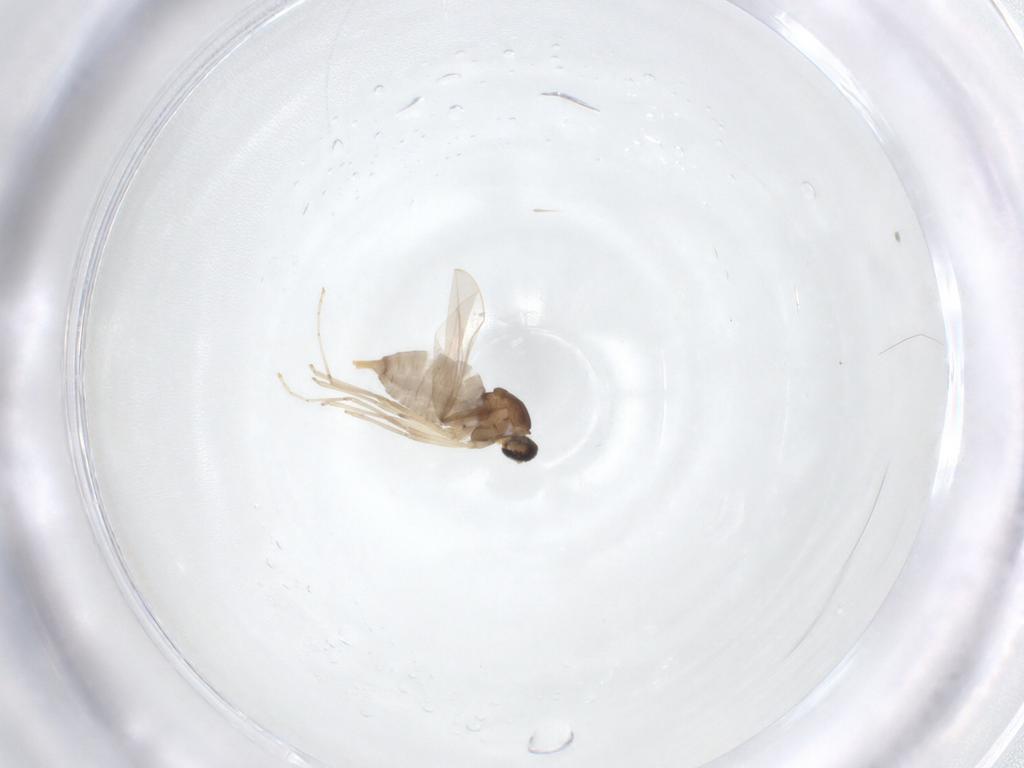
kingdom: Animalia
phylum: Arthropoda
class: Insecta
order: Diptera
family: Cecidomyiidae
